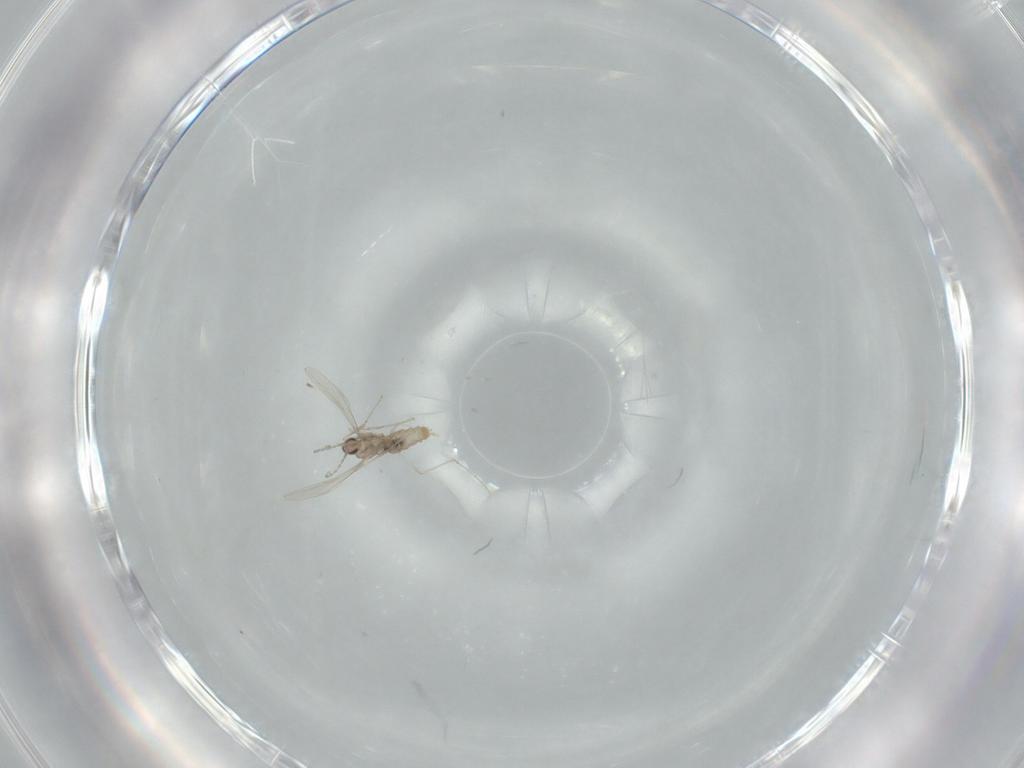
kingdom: Animalia
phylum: Arthropoda
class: Insecta
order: Diptera
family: Cecidomyiidae
